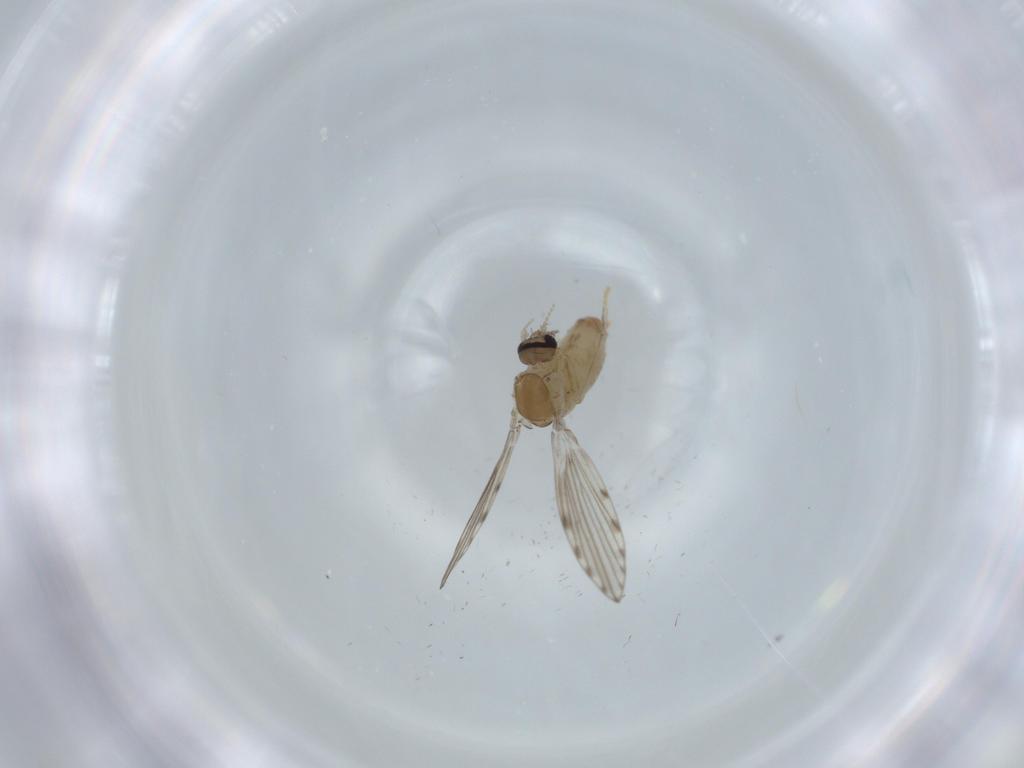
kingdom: Animalia
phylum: Arthropoda
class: Insecta
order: Diptera
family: Psychodidae
